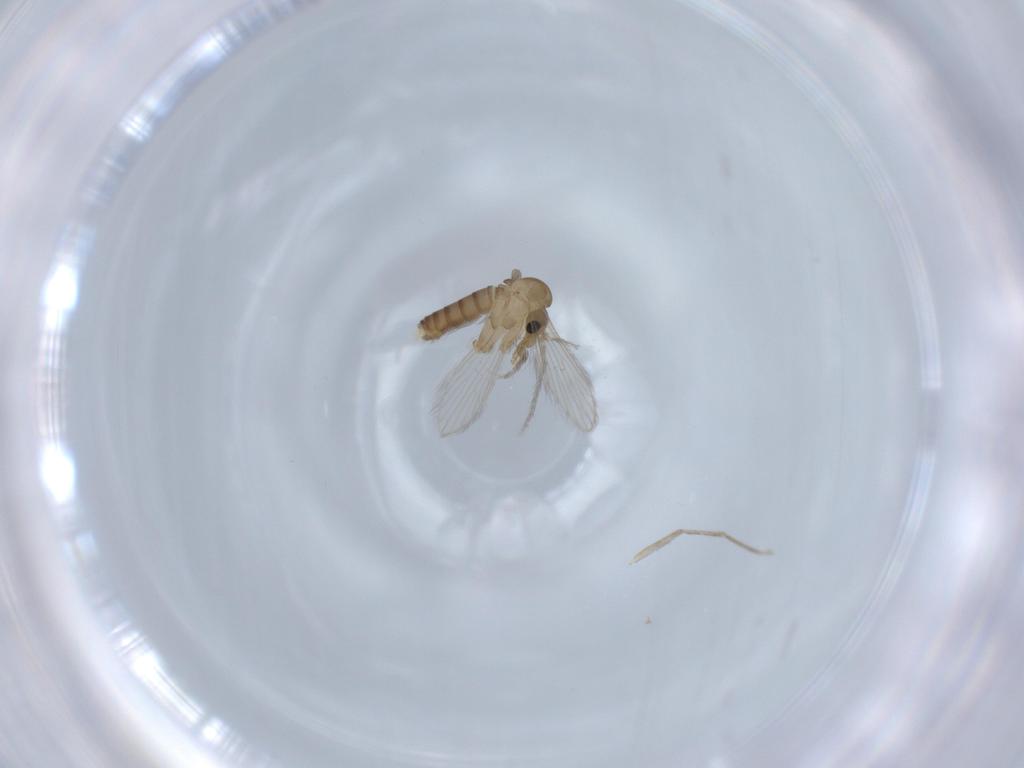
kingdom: Animalia
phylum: Arthropoda
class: Insecta
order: Diptera
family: Psychodidae
